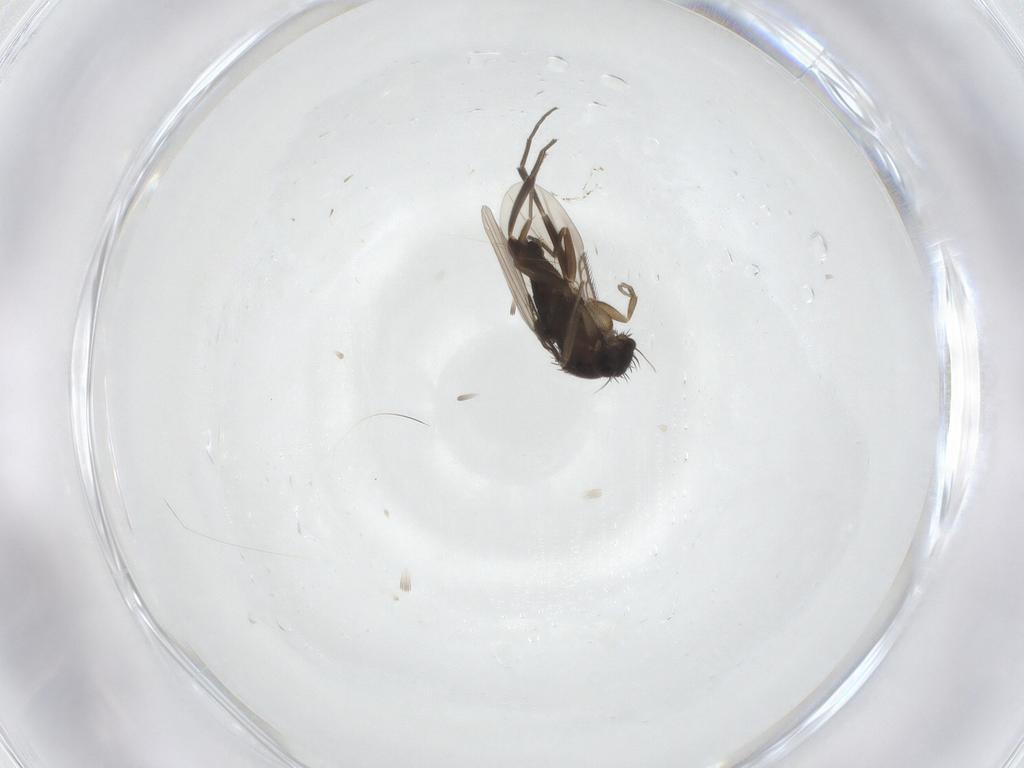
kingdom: Animalia
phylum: Arthropoda
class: Insecta
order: Diptera
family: Phoridae
